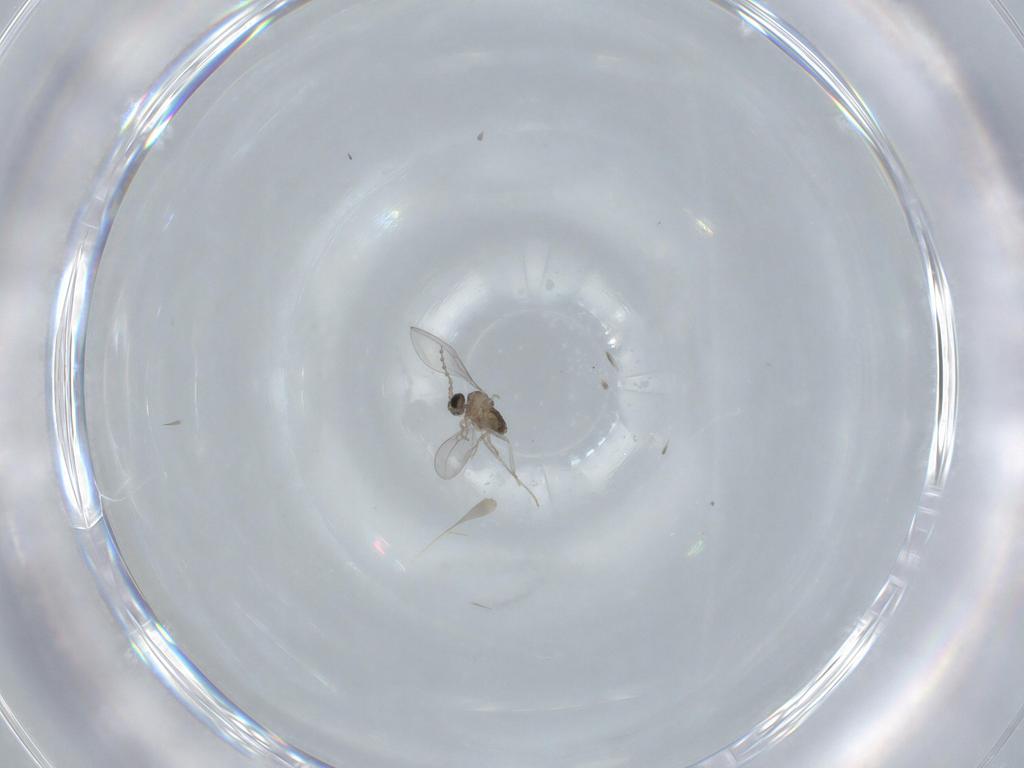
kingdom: Animalia
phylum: Arthropoda
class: Insecta
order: Diptera
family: Cecidomyiidae
